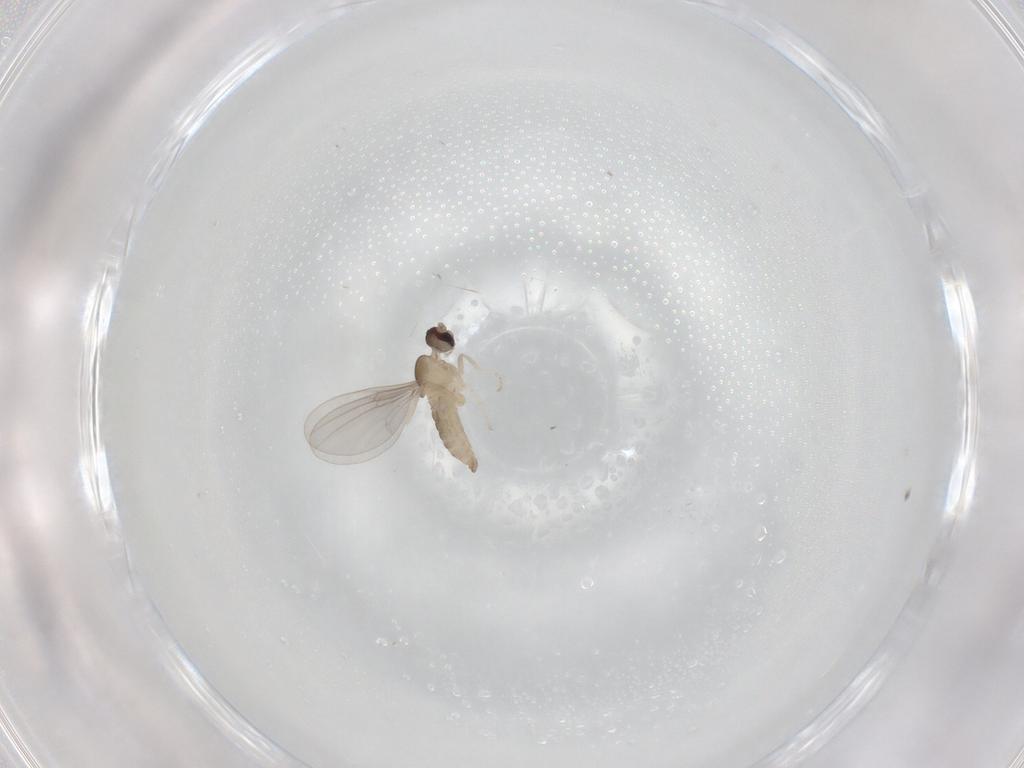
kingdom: Animalia
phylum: Arthropoda
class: Insecta
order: Diptera
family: Cecidomyiidae
